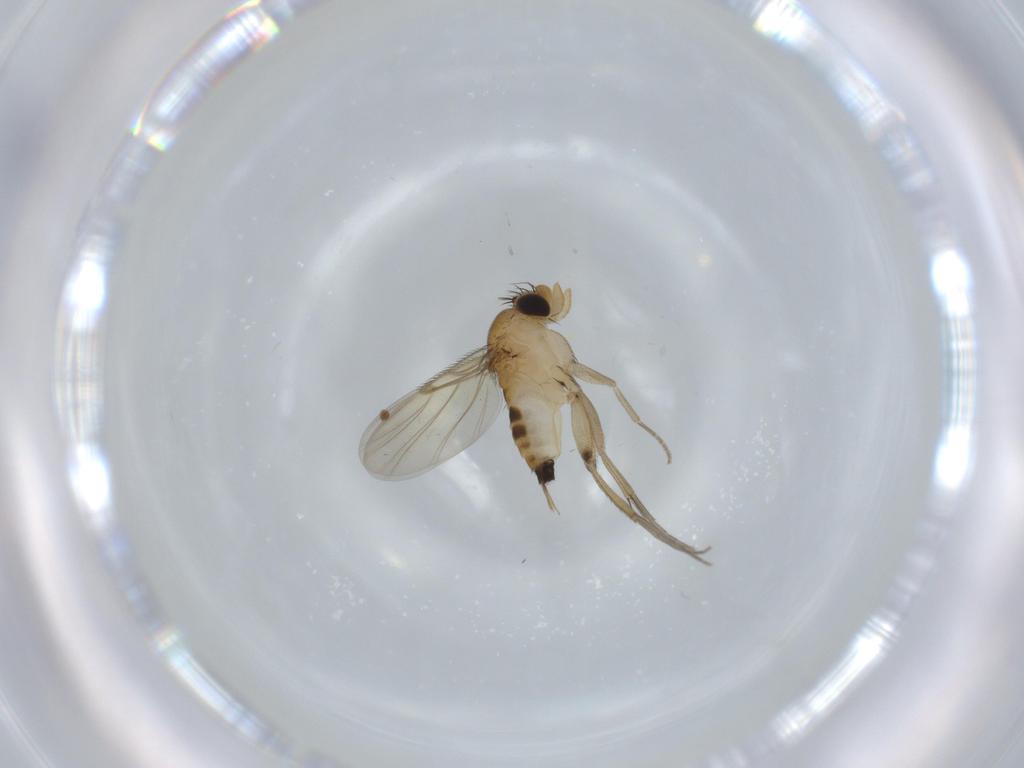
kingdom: Animalia
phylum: Arthropoda
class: Insecta
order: Diptera
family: Phoridae
